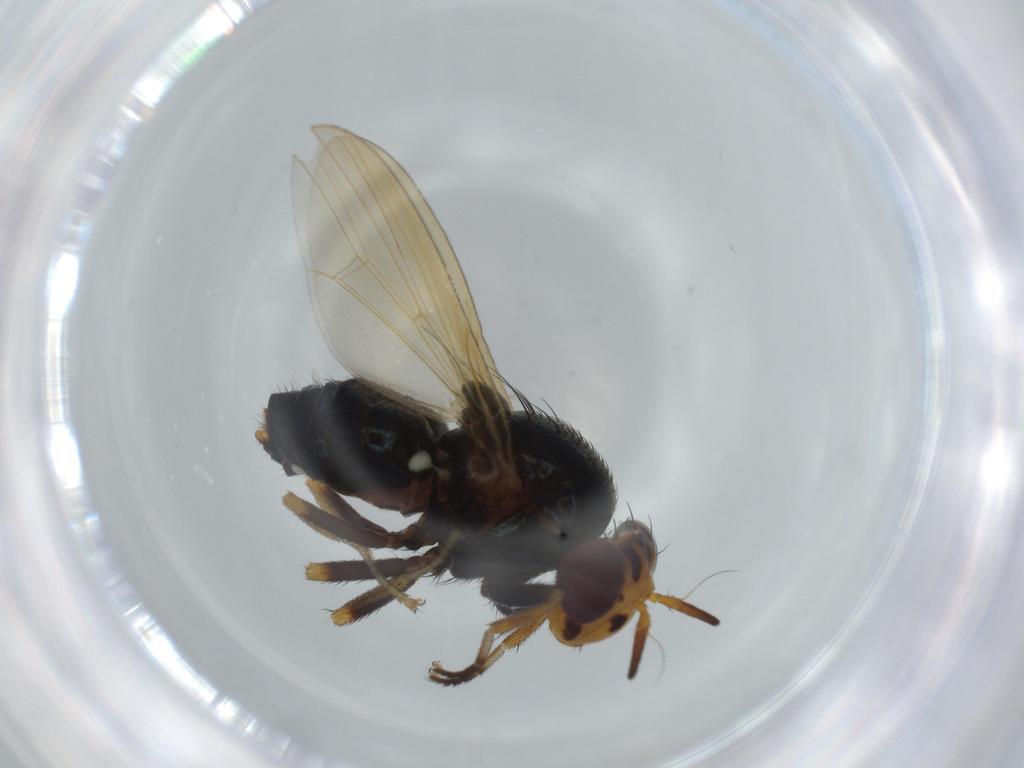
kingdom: Animalia
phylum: Arthropoda
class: Insecta
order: Diptera
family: Lauxaniidae
